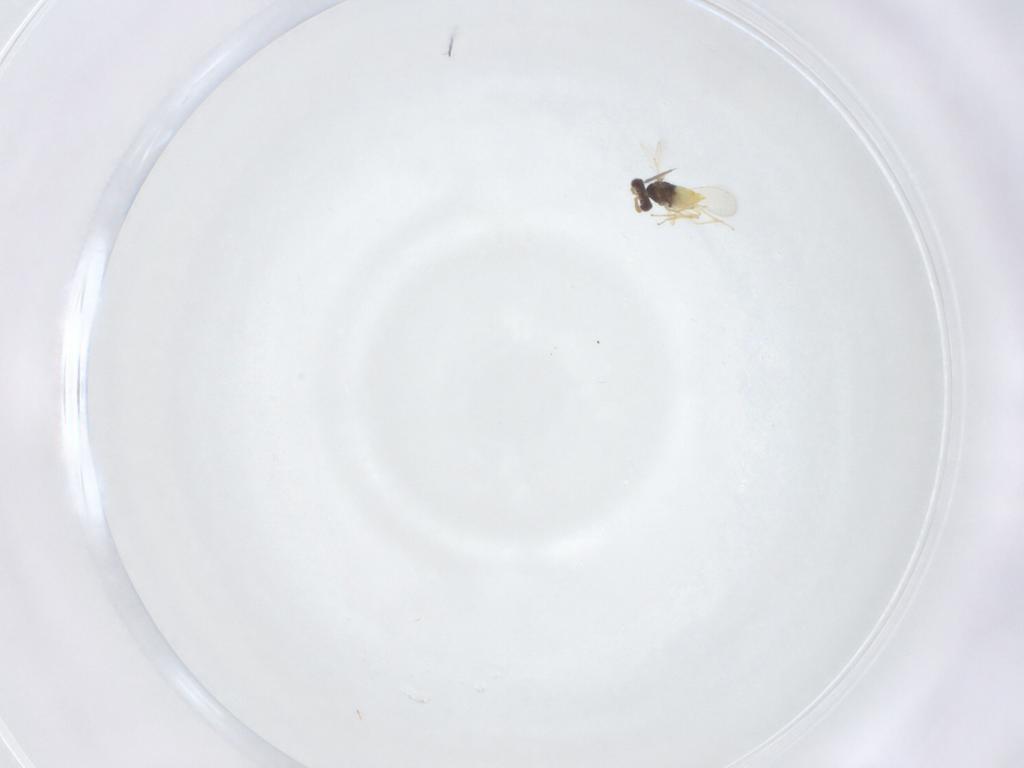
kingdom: Animalia
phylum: Arthropoda
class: Insecta
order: Hymenoptera
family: Aphelinidae
